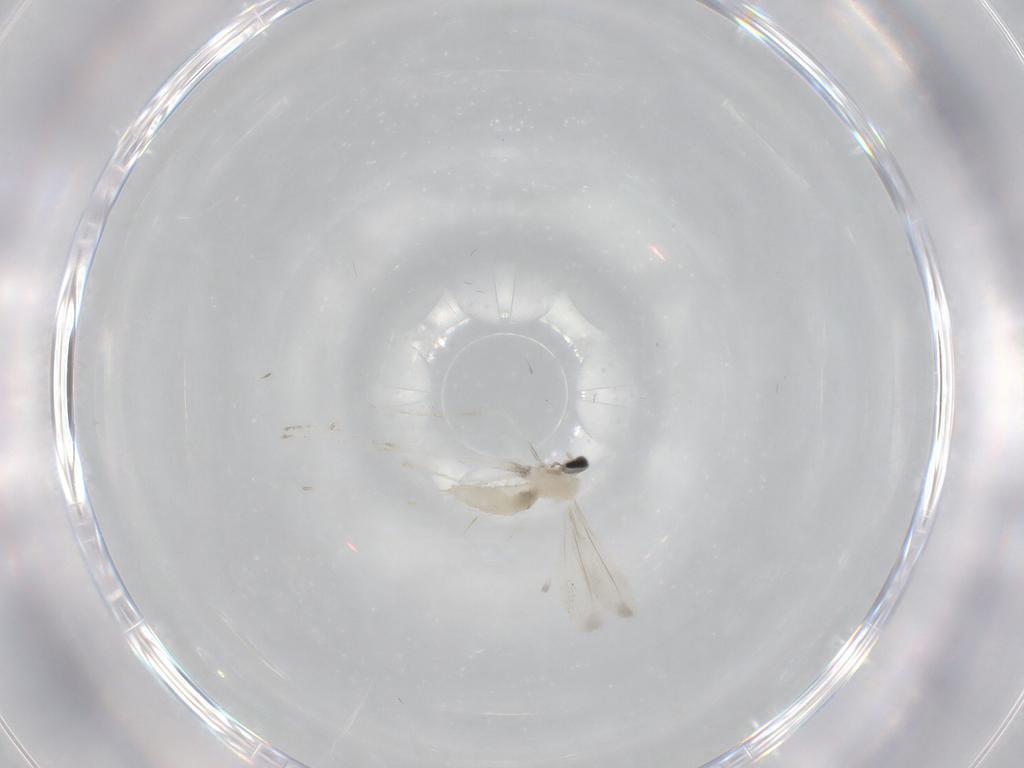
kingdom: Animalia
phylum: Arthropoda
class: Insecta
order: Diptera
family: Cecidomyiidae
